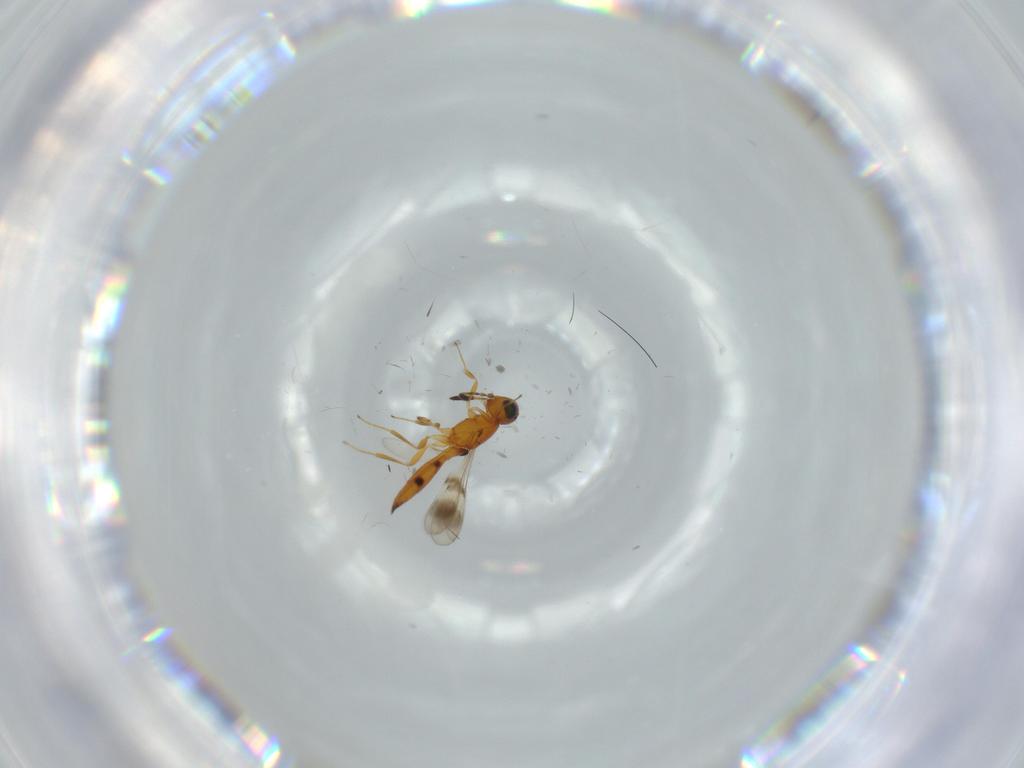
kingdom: Animalia
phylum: Arthropoda
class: Insecta
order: Hymenoptera
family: Scelionidae
